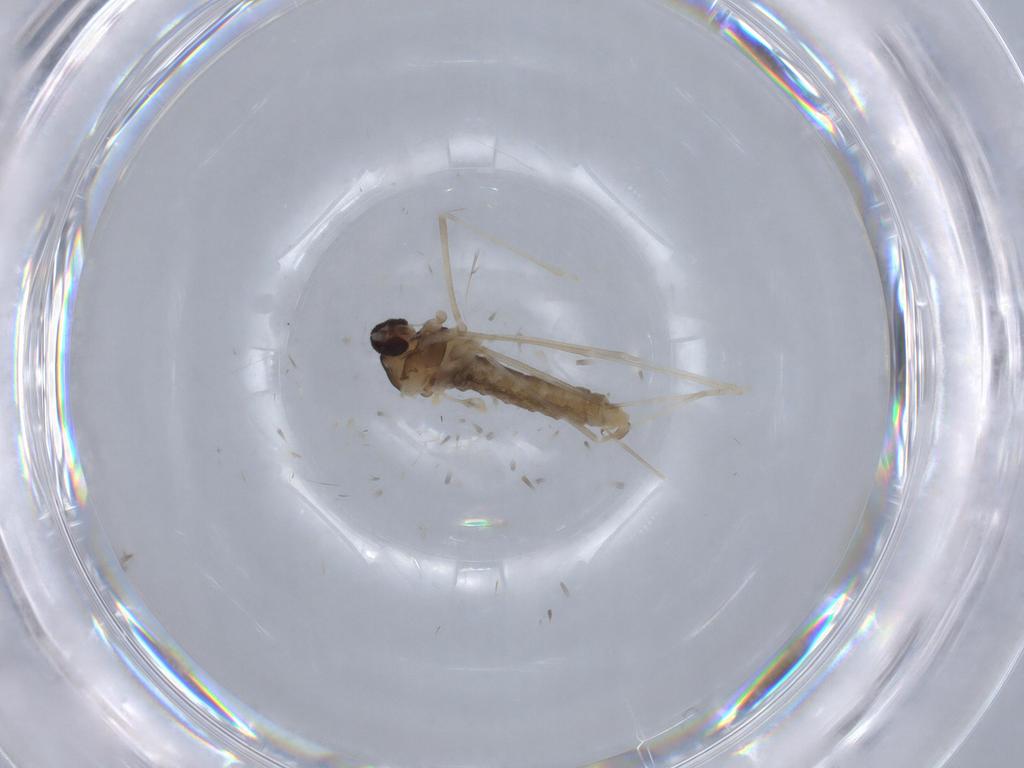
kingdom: Animalia
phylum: Arthropoda
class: Insecta
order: Diptera
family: Cecidomyiidae
